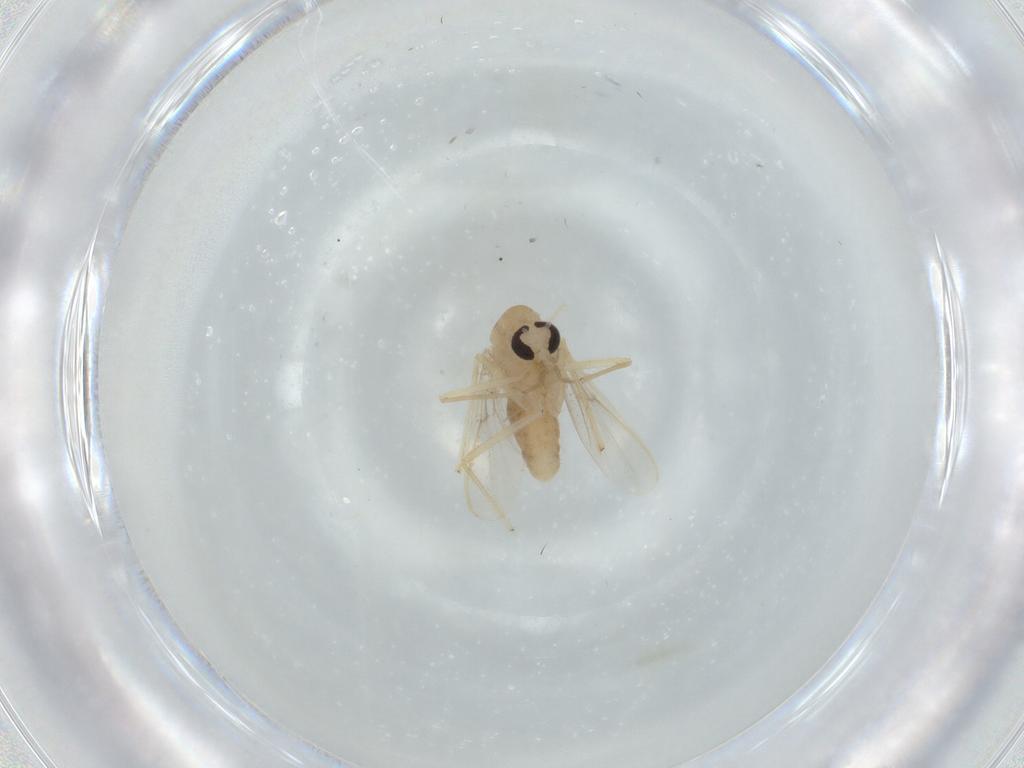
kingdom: Animalia
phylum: Arthropoda
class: Insecta
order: Diptera
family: Chironomidae
